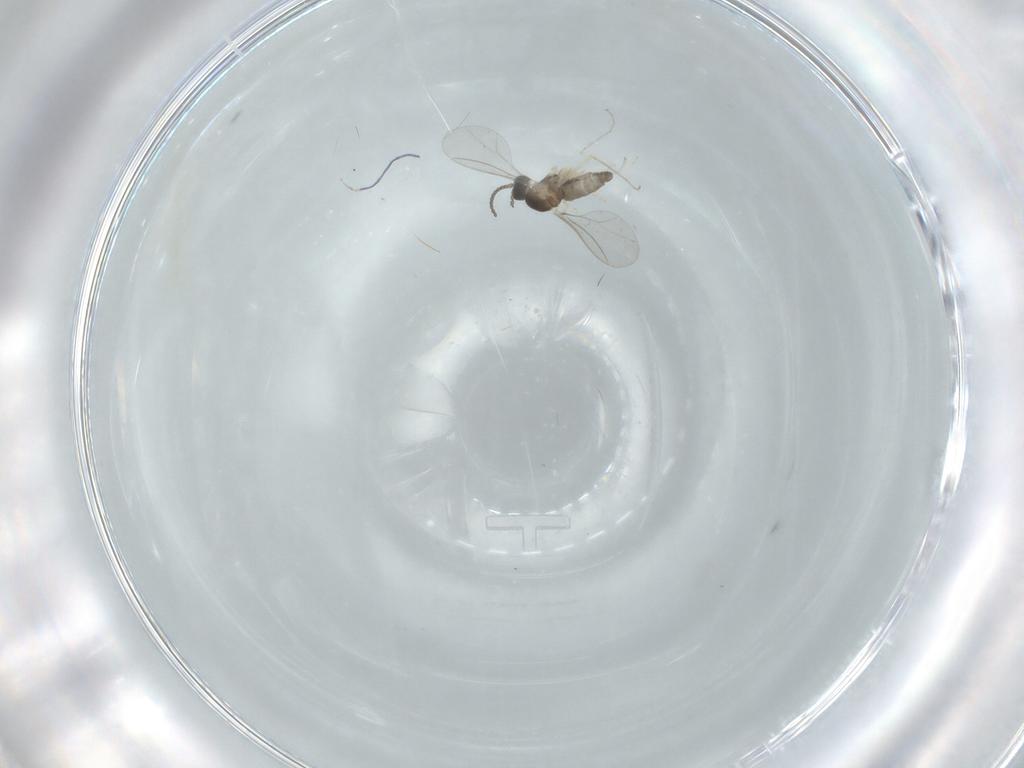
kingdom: Animalia
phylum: Arthropoda
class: Insecta
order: Diptera
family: Cecidomyiidae
